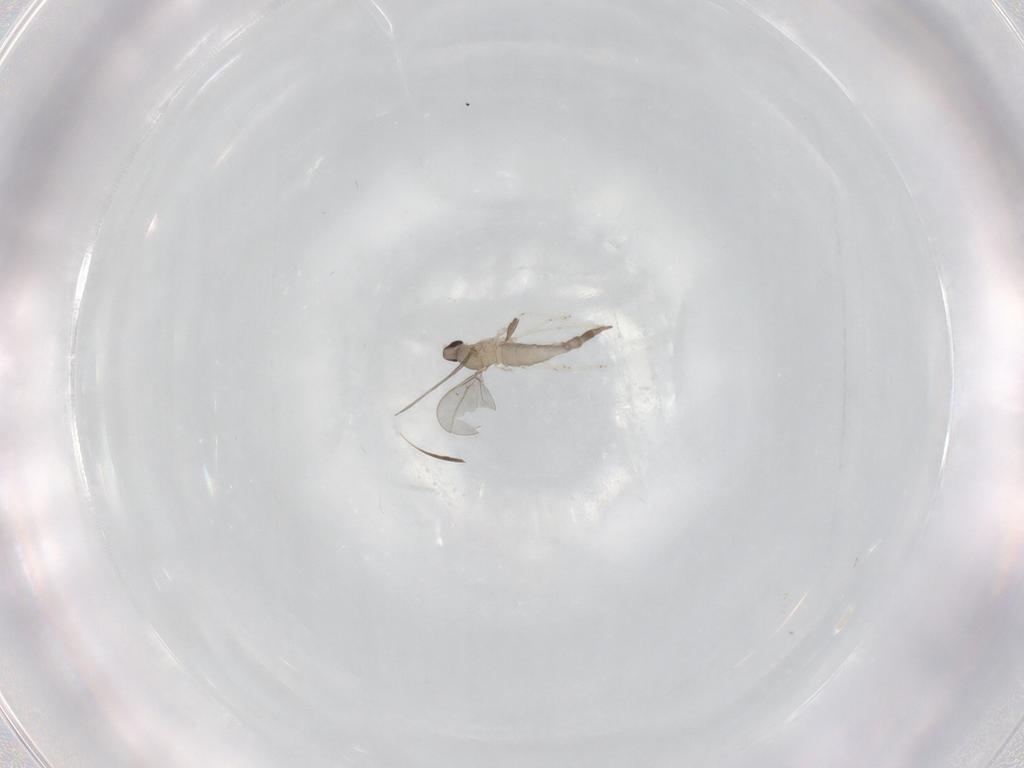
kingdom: Animalia
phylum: Arthropoda
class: Insecta
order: Diptera
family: Cecidomyiidae
